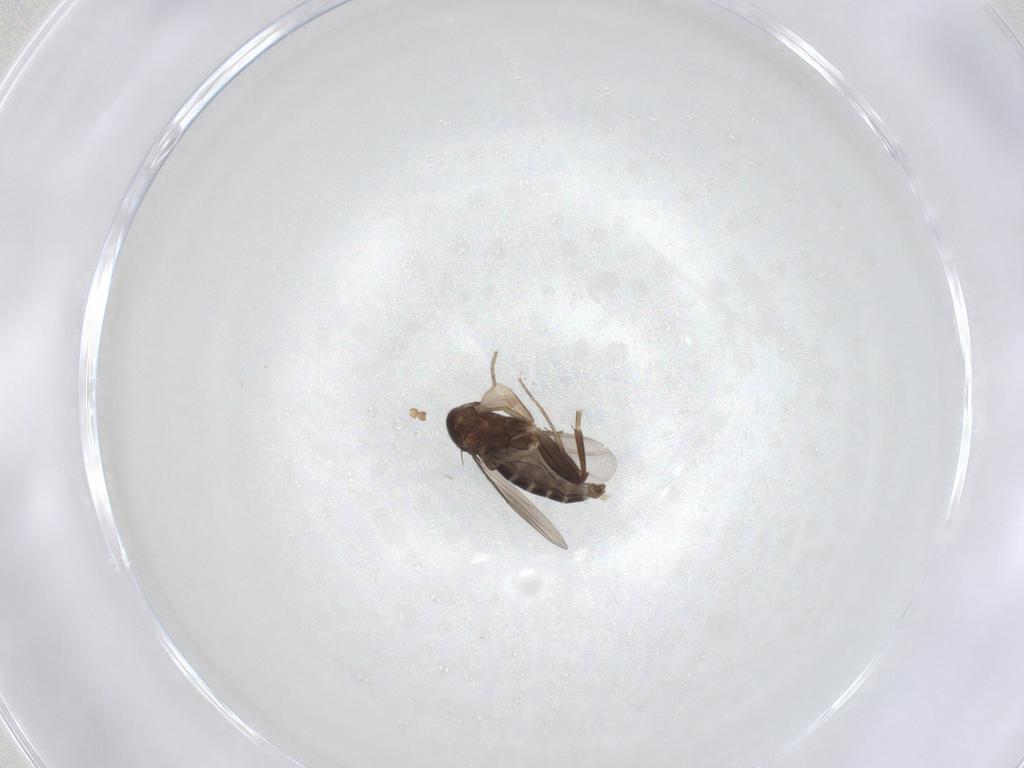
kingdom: Animalia
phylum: Arthropoda
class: Insecta
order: Diptera
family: Phoridae
